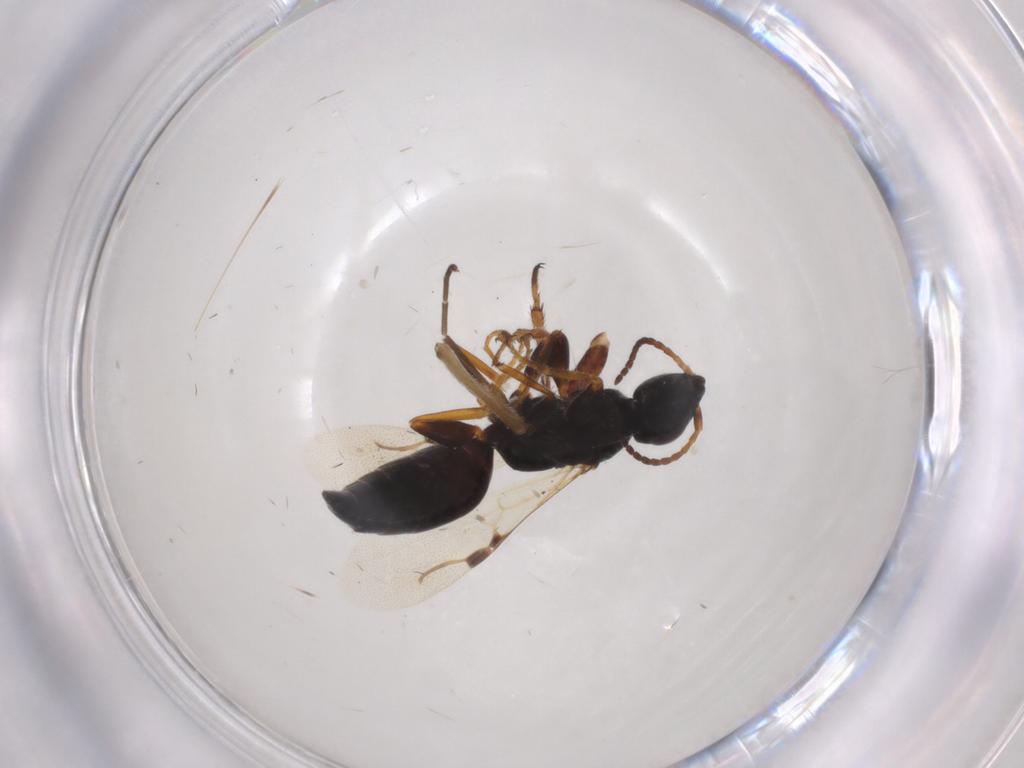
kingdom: Animalia
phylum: Arthropoda
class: Insecta
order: Hymenoptera
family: Bethylidae
